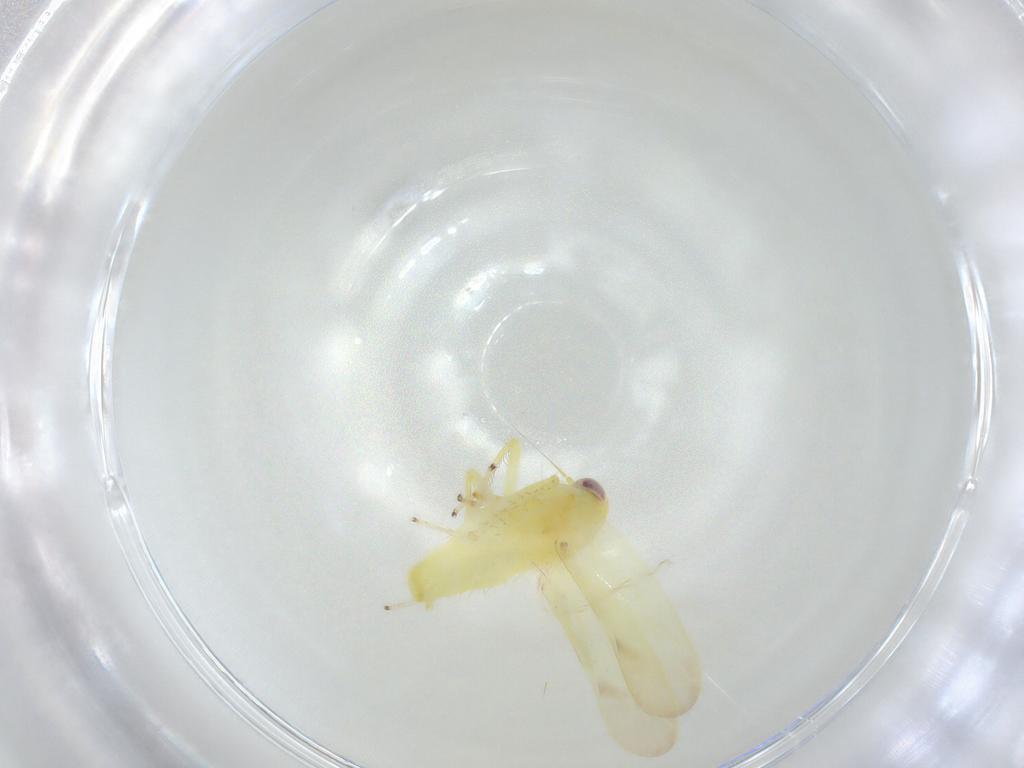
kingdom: Animalia
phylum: Arthropoda
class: Insecta
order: Hemiptera
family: Cicadellidae
